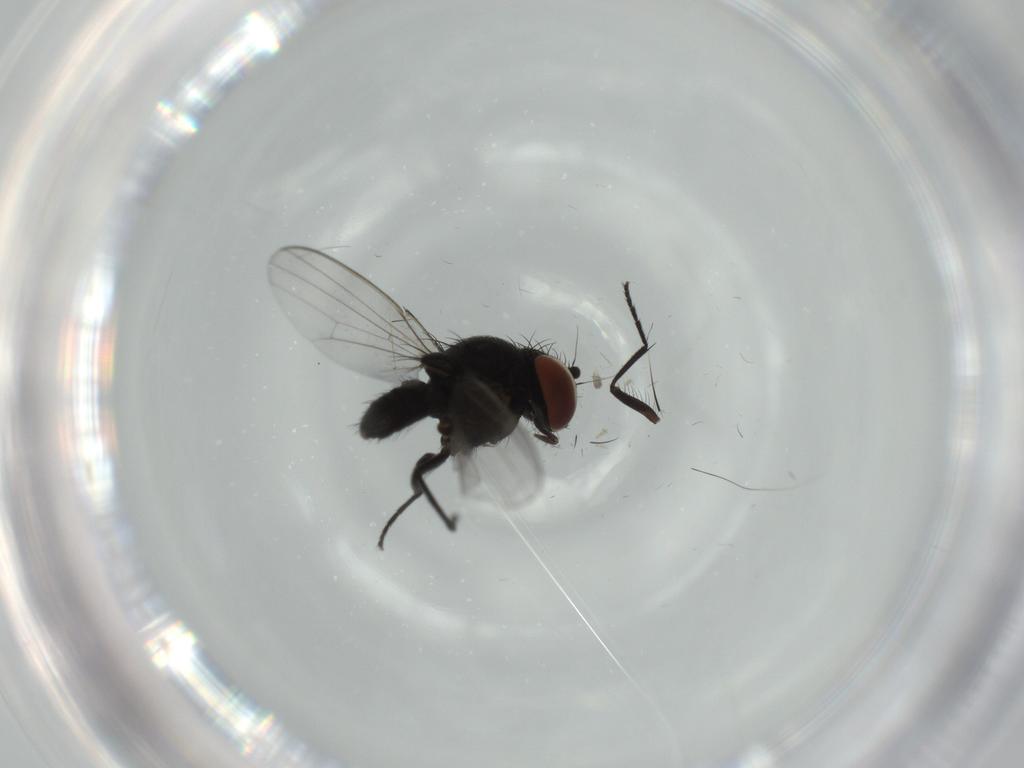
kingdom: Animalia
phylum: Arthropoda
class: Insecta
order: Diptera
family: Milichiidae
